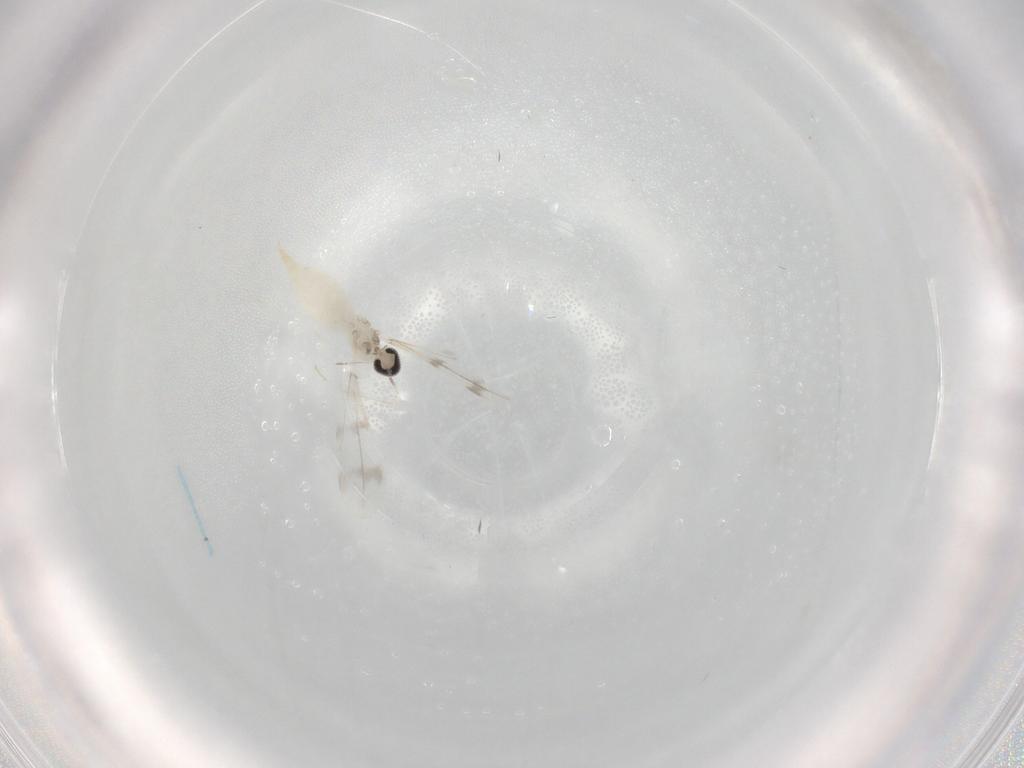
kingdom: Animalia
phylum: Arthropoda
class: Insecta
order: Diptera
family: Cecidomyiidae
